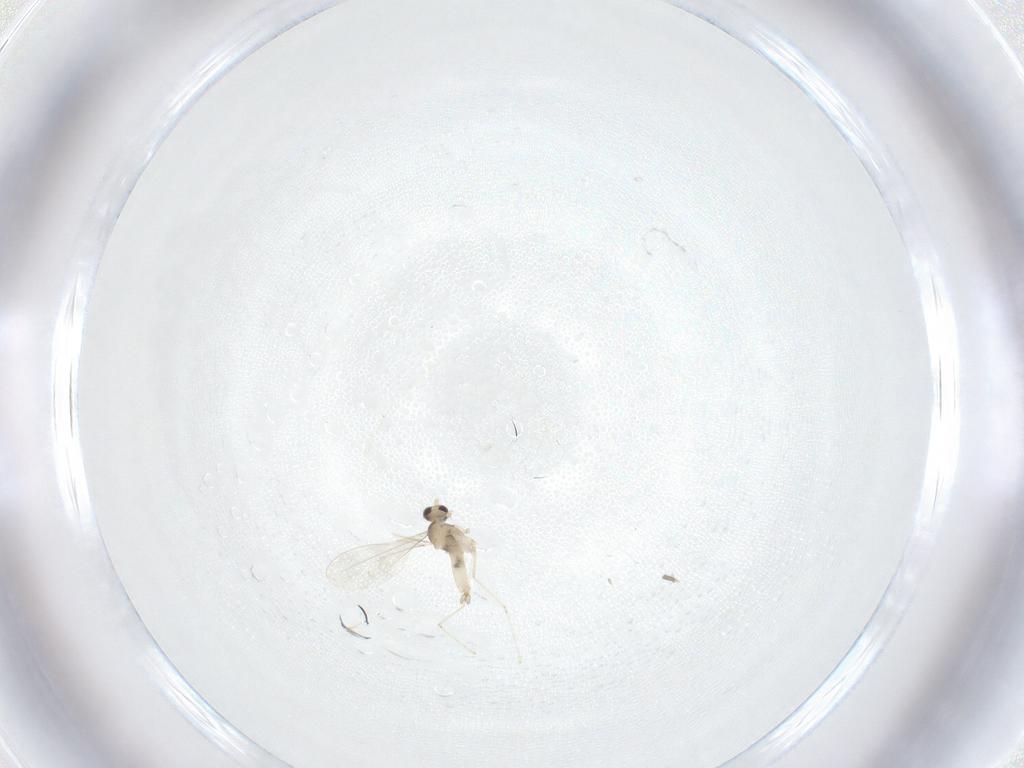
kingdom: Animalia
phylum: Arthropoda
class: Insecta
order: Diptera
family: Sciaridae
